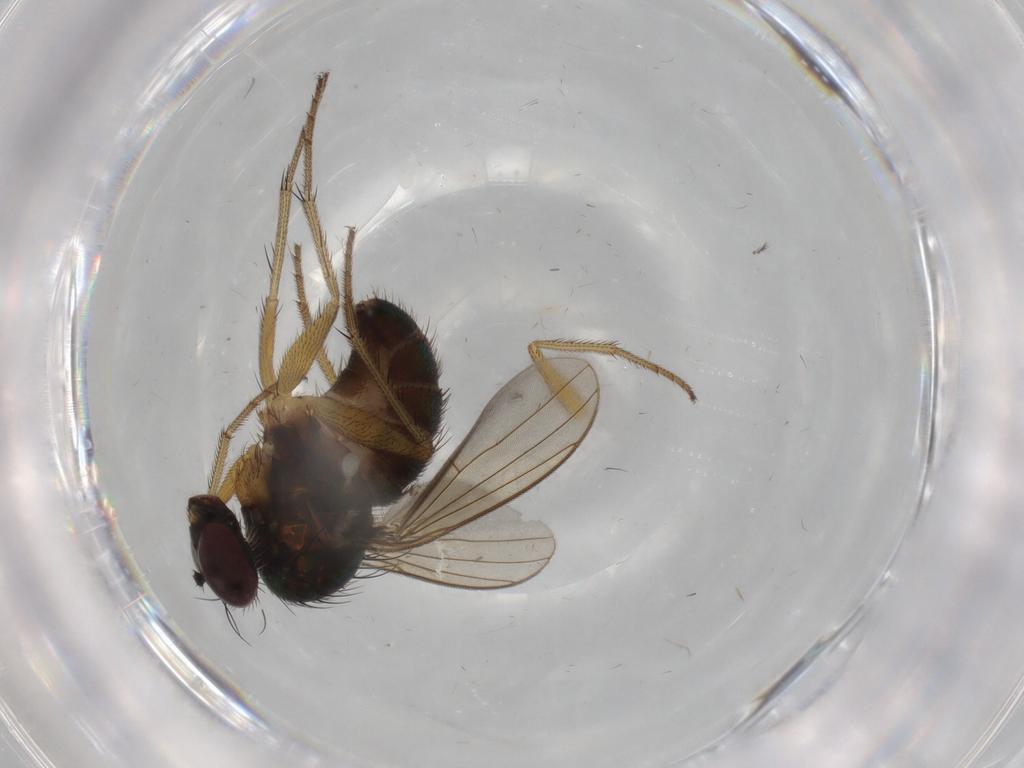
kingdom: Animalia
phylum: Arthropoda
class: Insecta
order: Diptera
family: Dolichopodidae
